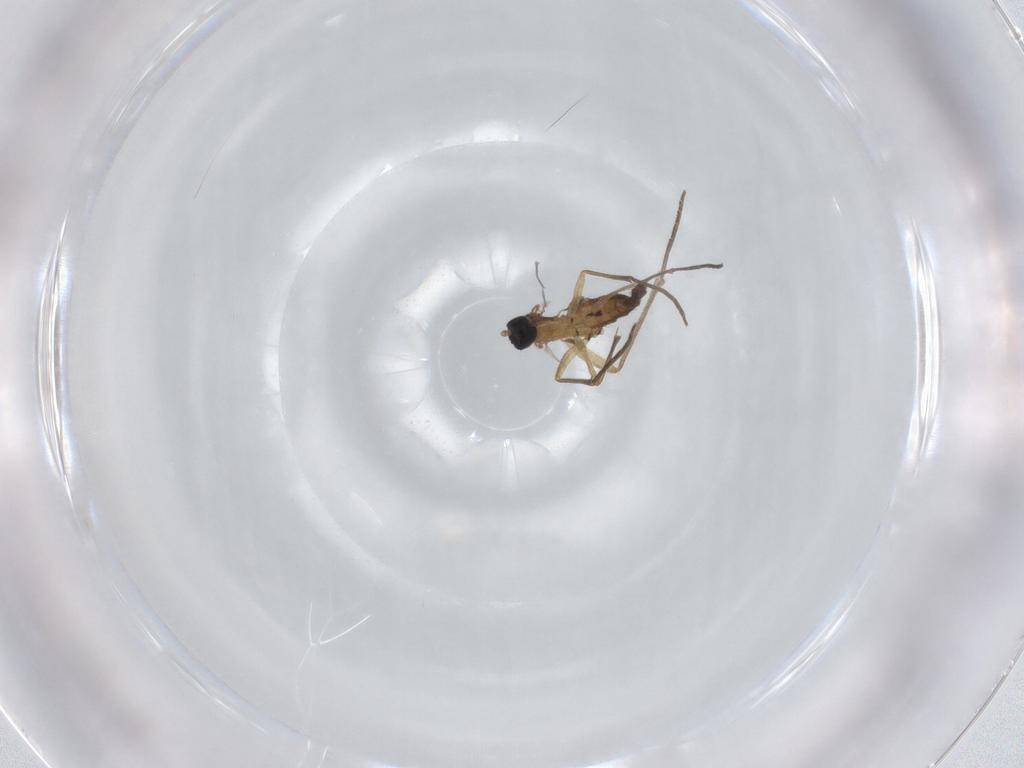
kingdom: Animalia
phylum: Arthropoda
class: Insecta
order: Diptera
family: Sciaridae
